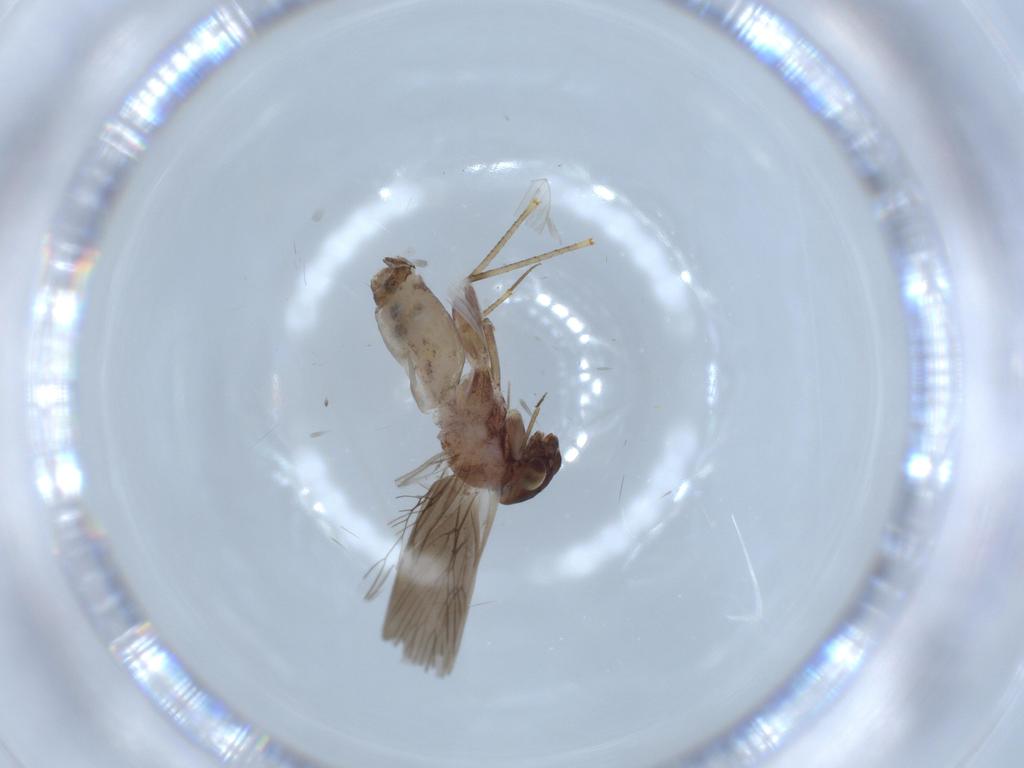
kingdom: Animalia
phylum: Arthropoda
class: Insecta
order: Psocodea
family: Lepidopsocidae
